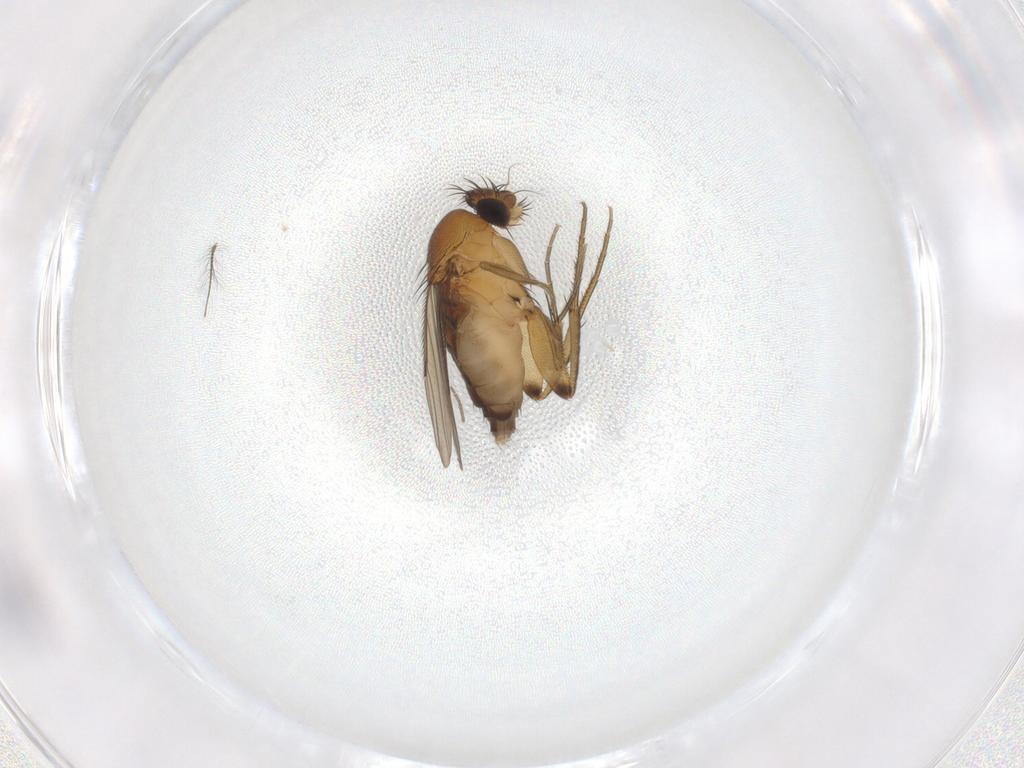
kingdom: Animalia
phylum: Arthropoda
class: Insecta
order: Diptera
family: Phoridae
